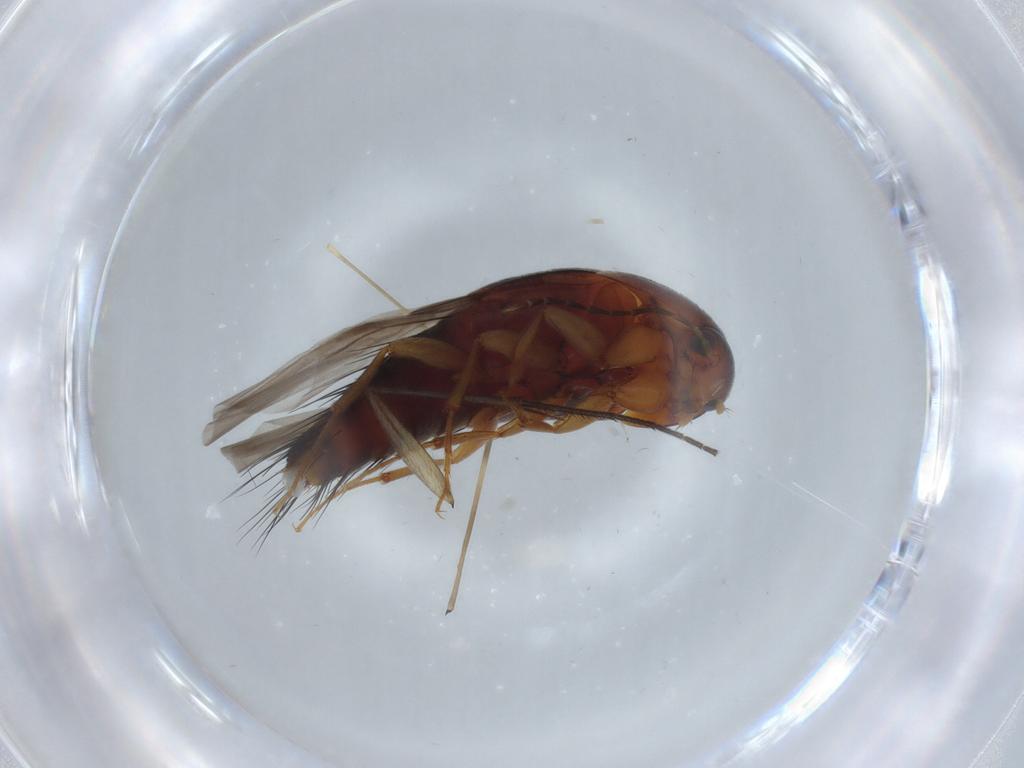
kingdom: Animalia
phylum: Arthropoda
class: Insecta
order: Coleoptera
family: Staphylinidae
